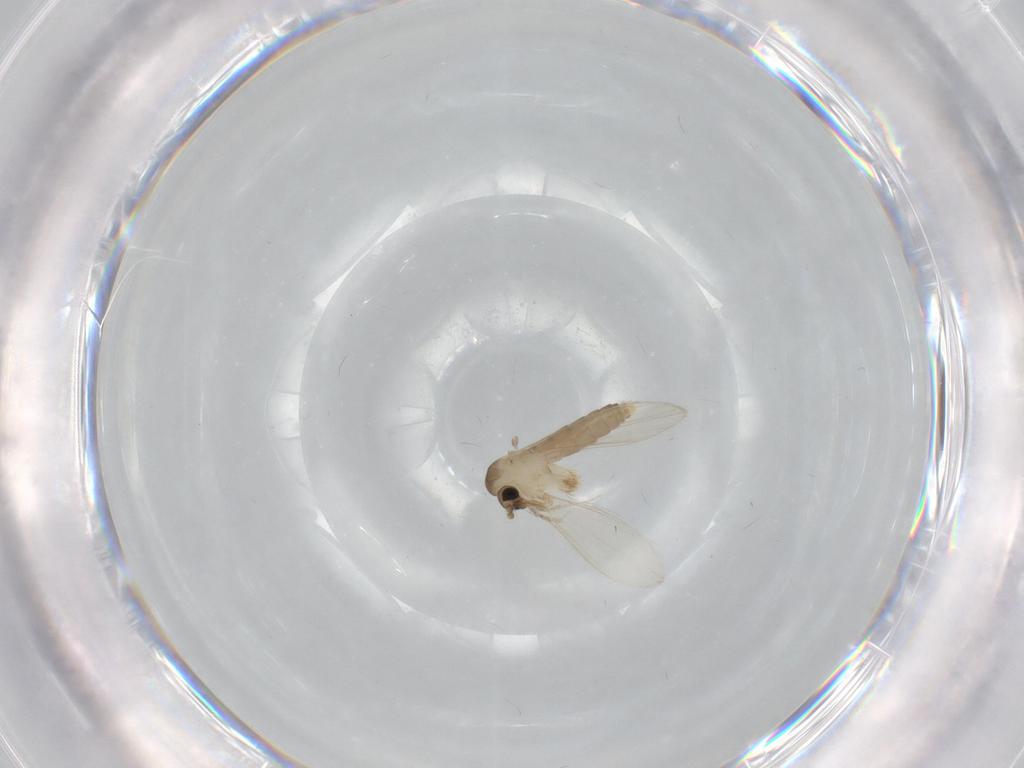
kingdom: Animalia
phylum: Arthropoda
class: Insecta
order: Diptera
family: Psychodidae
